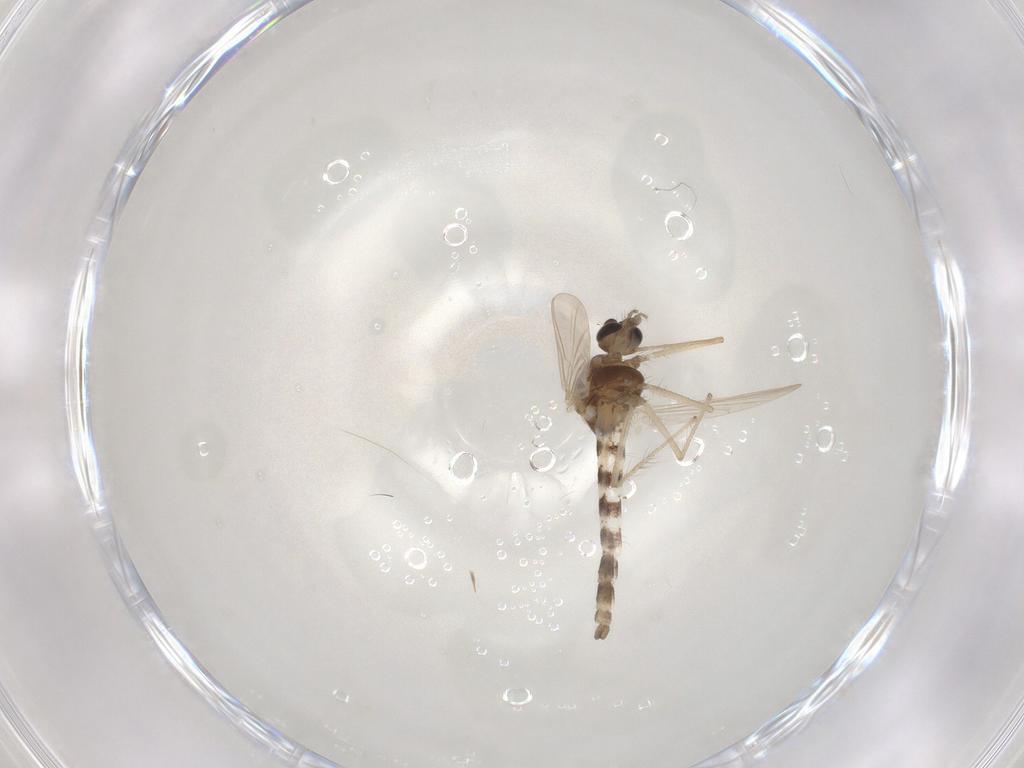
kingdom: Animalia
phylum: Arthropoda
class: Insecta
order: Diptera
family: Chironomidae
